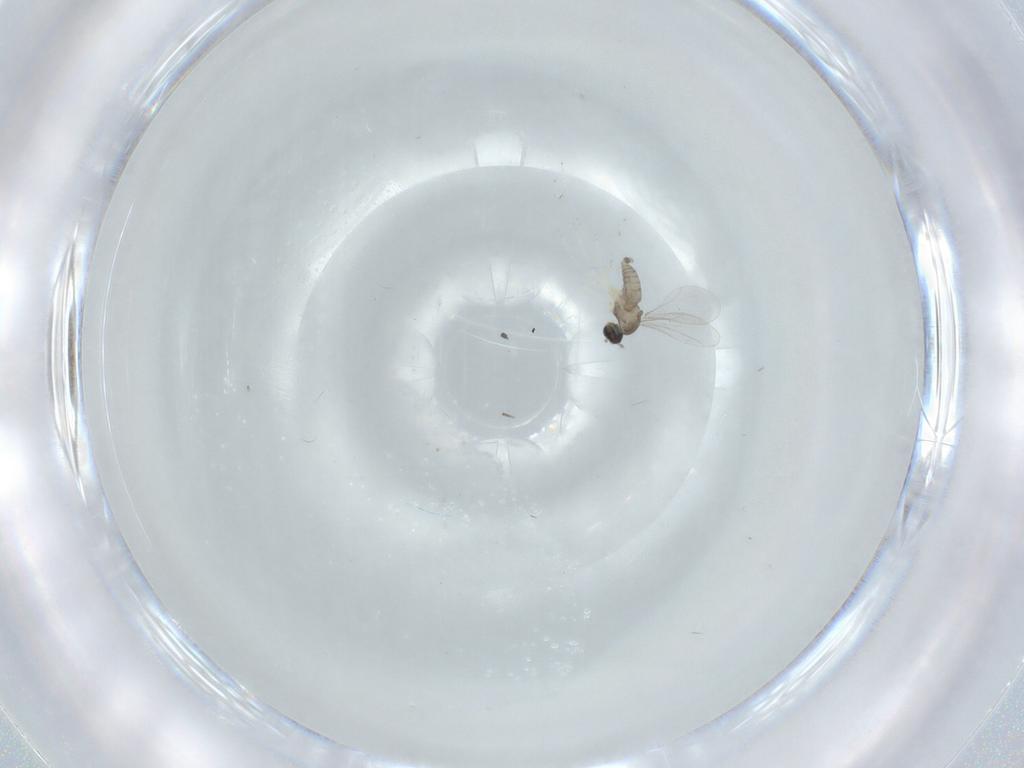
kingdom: Animalia
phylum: Arthropoda
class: Insecta
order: Diptera
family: Cecidomyiidae
